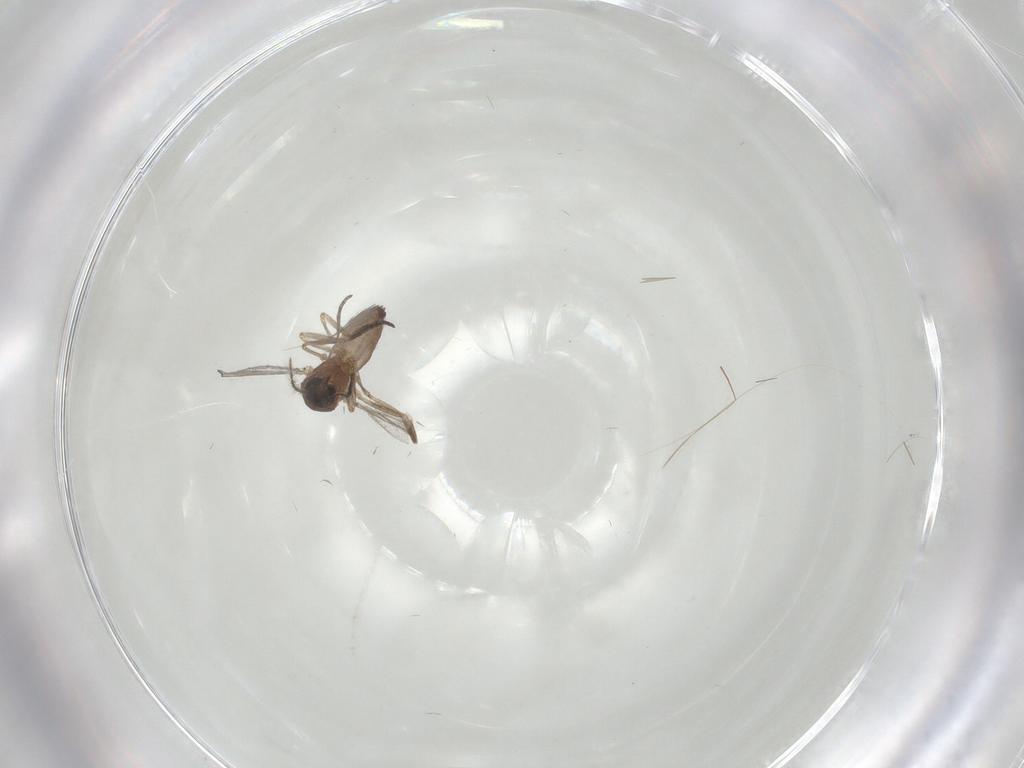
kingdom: Animalia
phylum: Arthropoda
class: Insecta
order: Diptera
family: Ceratopogonidae
